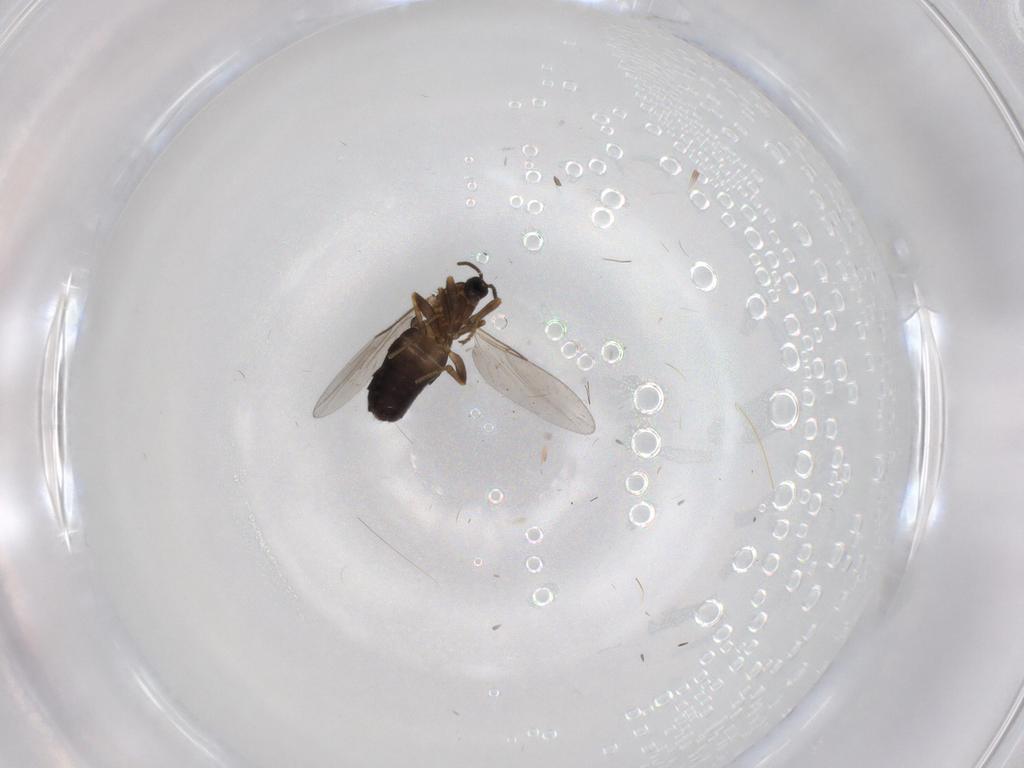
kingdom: Animalia
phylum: Arthropoda
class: Insecta
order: Diptera
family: Scatopsidae
